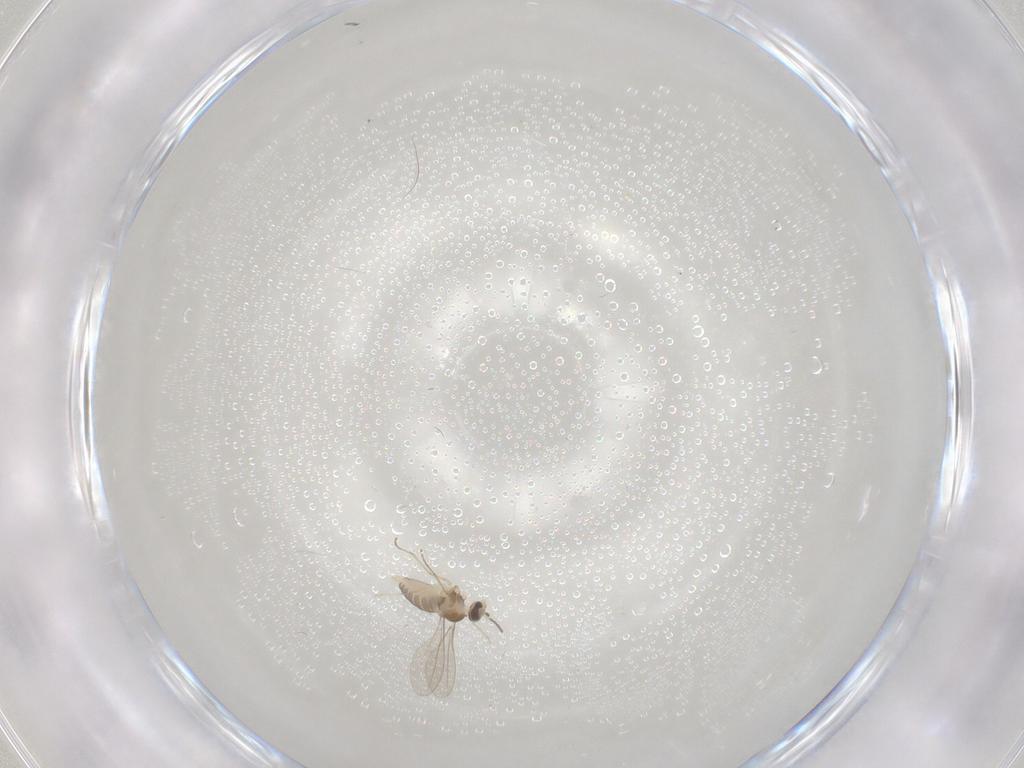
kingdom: Animalia
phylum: Arthropoda
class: Insecta
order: Diptera
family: Cecidomyiidae
